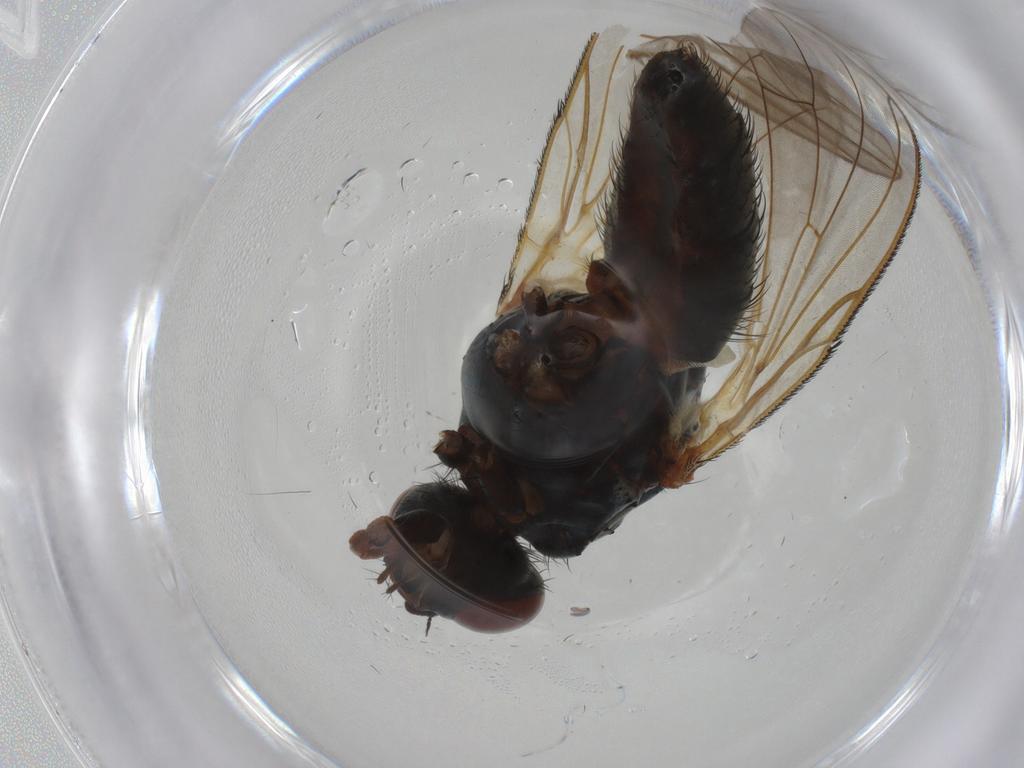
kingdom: Animalia
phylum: Arthropoda
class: Insecta
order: Diptera
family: Anthomyiidae
